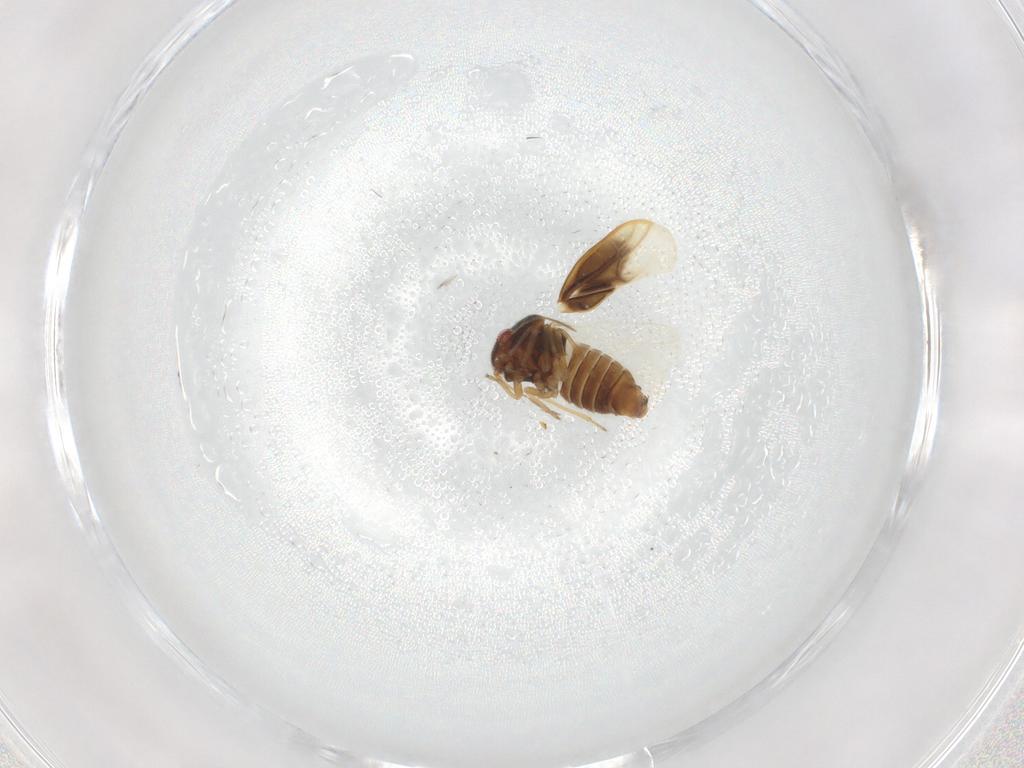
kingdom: Animalia
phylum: Arthropoda
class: Insecta
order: Hemiptera
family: Schizopteridae
